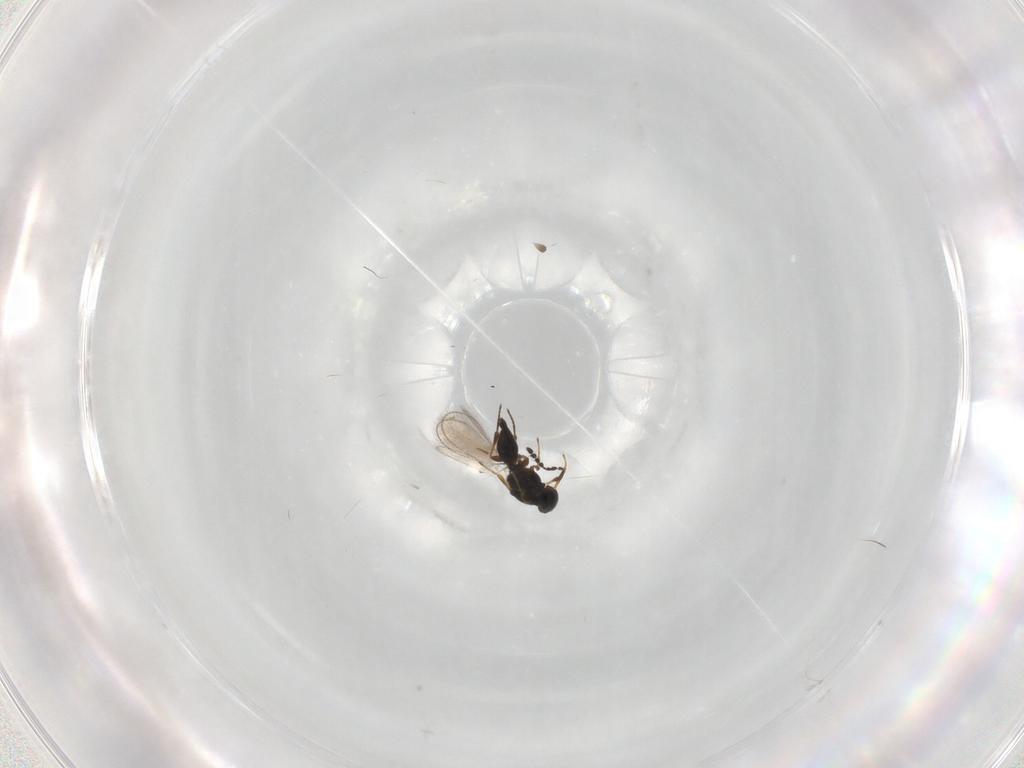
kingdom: Animalia
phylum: Arthropoda
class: Insecta
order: Hymenoptera
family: Platygastridae
